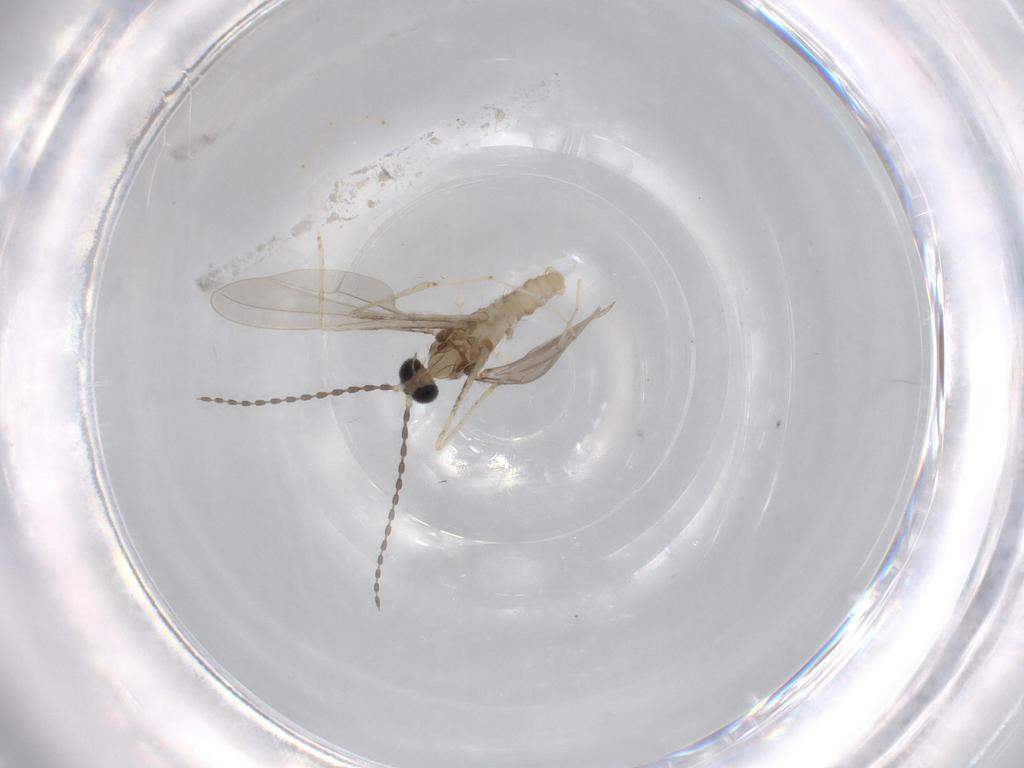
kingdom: Animalia
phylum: Arthropoda
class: Insecta
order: Diptera
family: Cecidomyiidae
